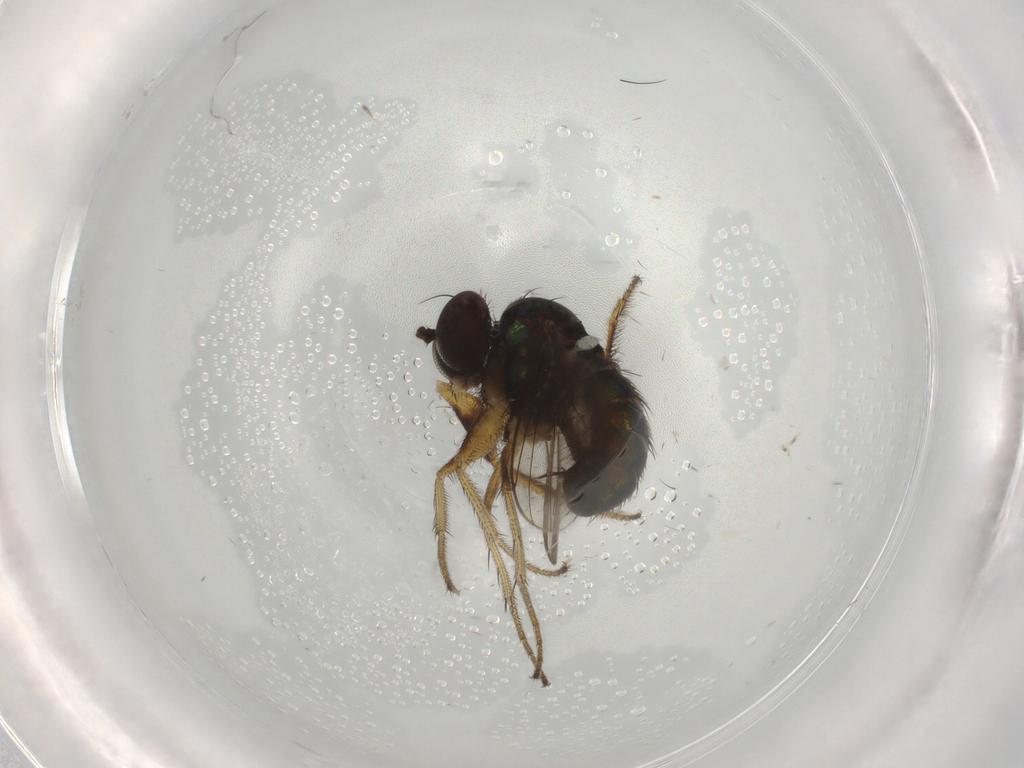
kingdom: Animalia
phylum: Arthropoda
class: Insecta
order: Diptera
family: Dolichopodidae
